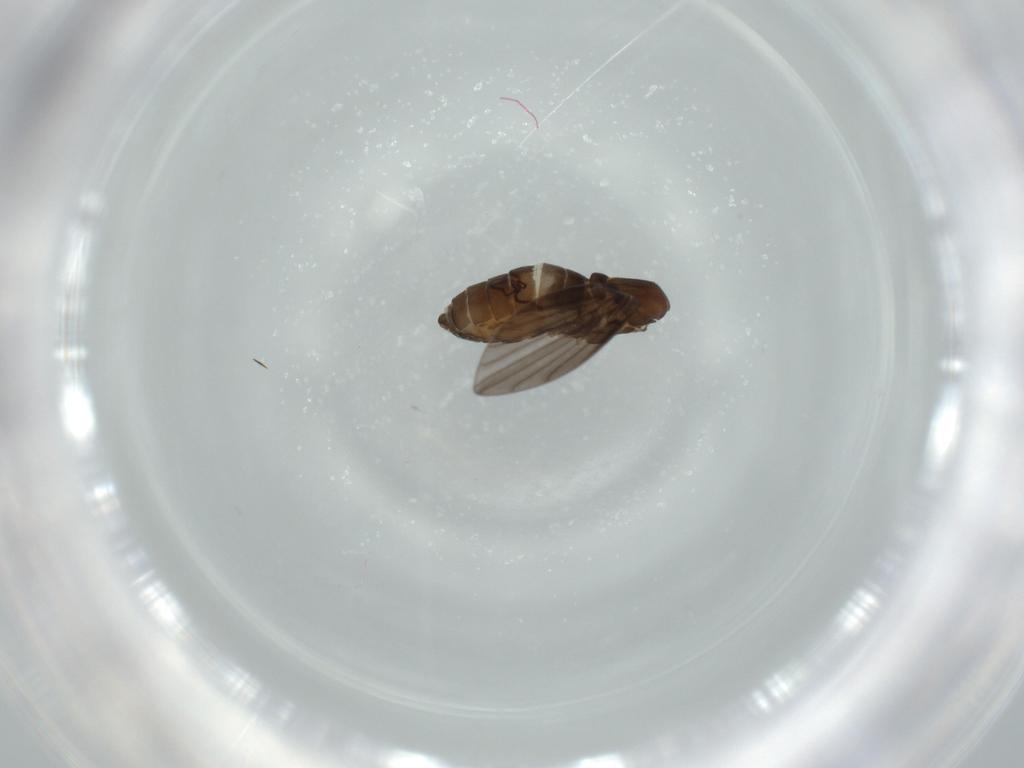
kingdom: Animalia
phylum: Arthropoda
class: Insecta
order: Diptera
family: Psychodidae
